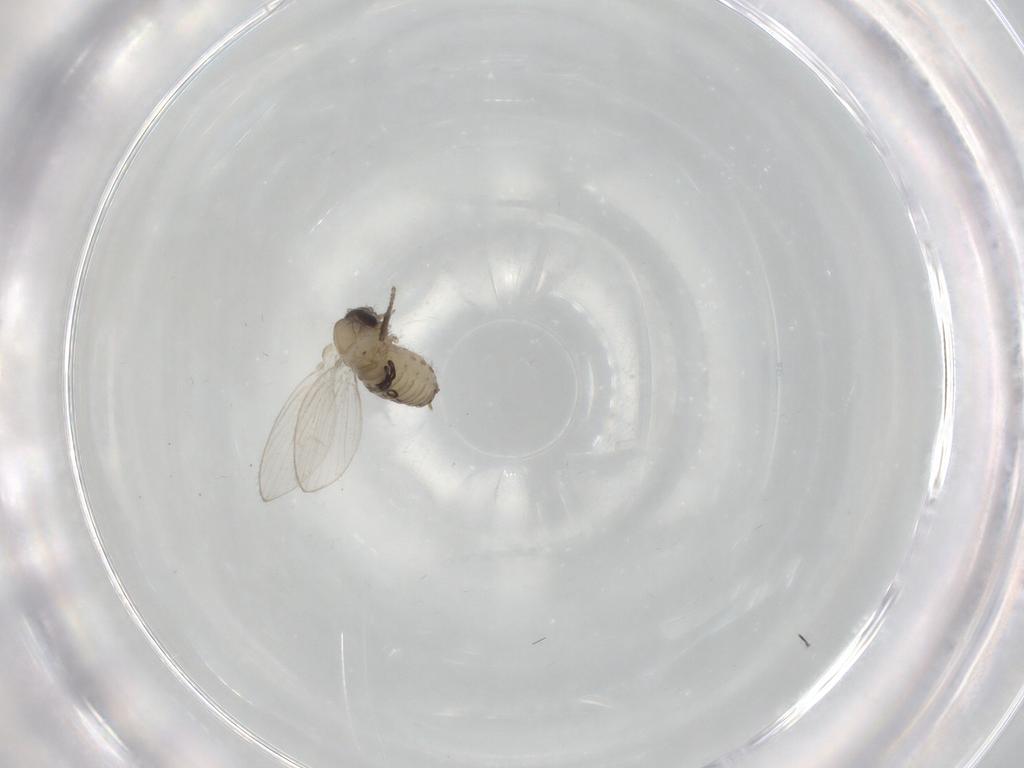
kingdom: Animalia
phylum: Arthropoda
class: Insecta
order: Diptera
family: Psychodidae
